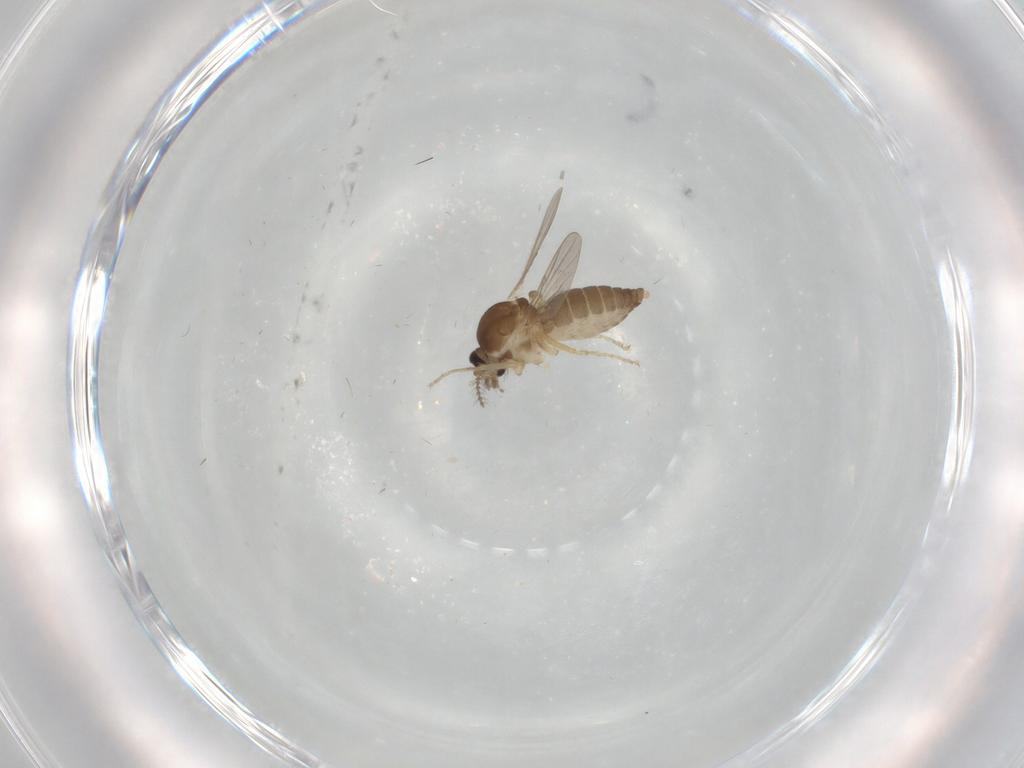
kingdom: Animalia
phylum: Arthropoda
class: Insecta
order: Diptera
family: Ceratopogonidae
